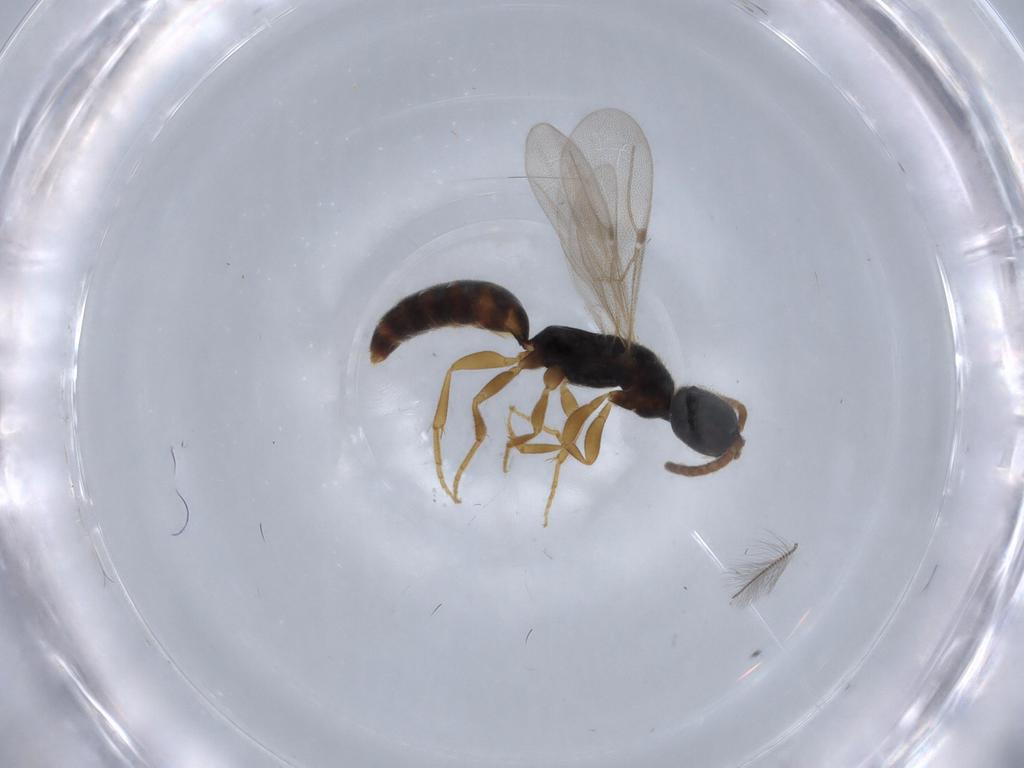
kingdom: Animalia
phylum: Arthropoda
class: Insecta
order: Hymenoptera
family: Bethylidae
